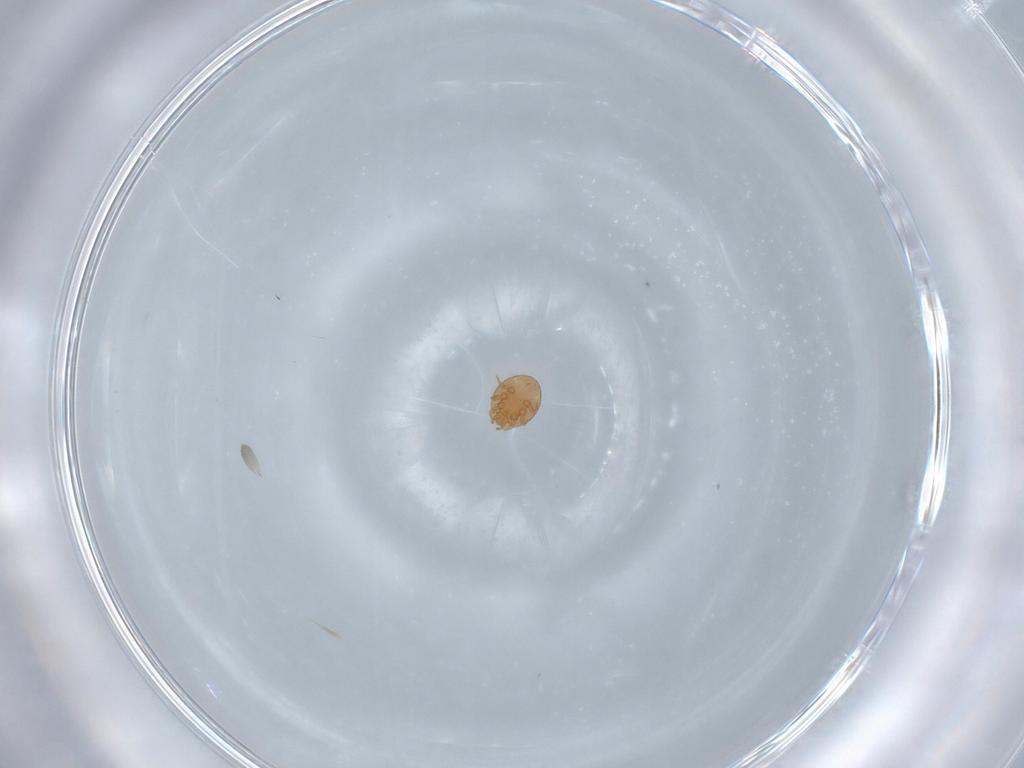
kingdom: Animalia
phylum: Arthropoda
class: Arachnida
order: Mesostigmata
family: Trematuridae
